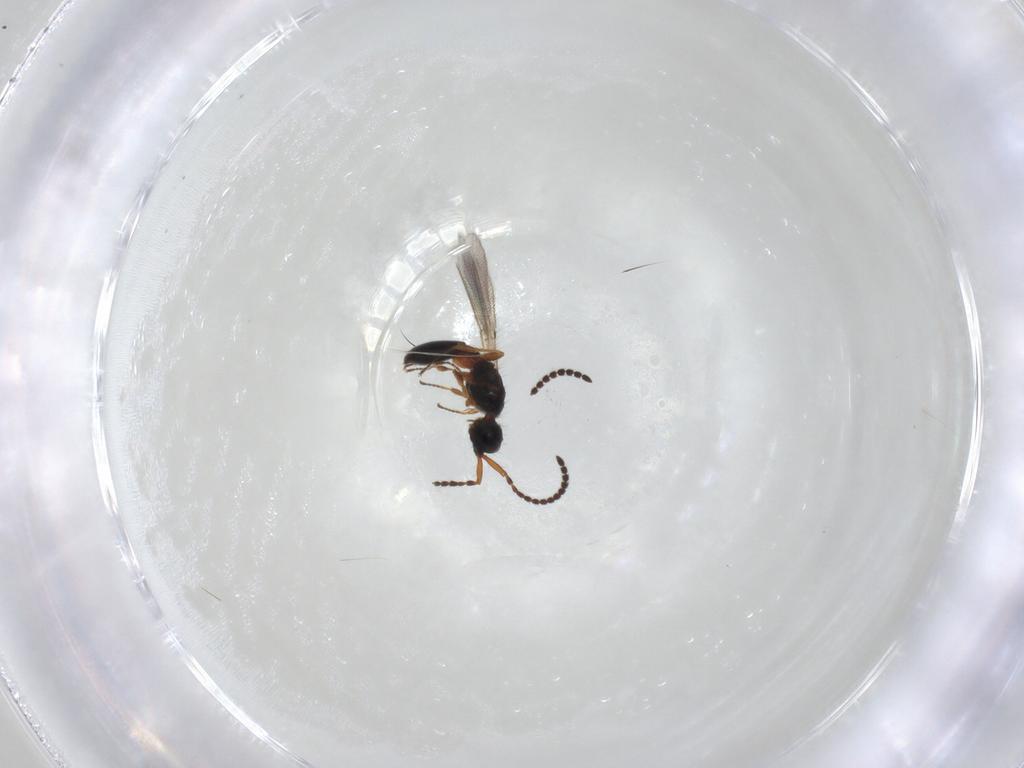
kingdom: Animalia
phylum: Arthropoda
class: Insecta
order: Hymenoptera
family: Diapriidae
